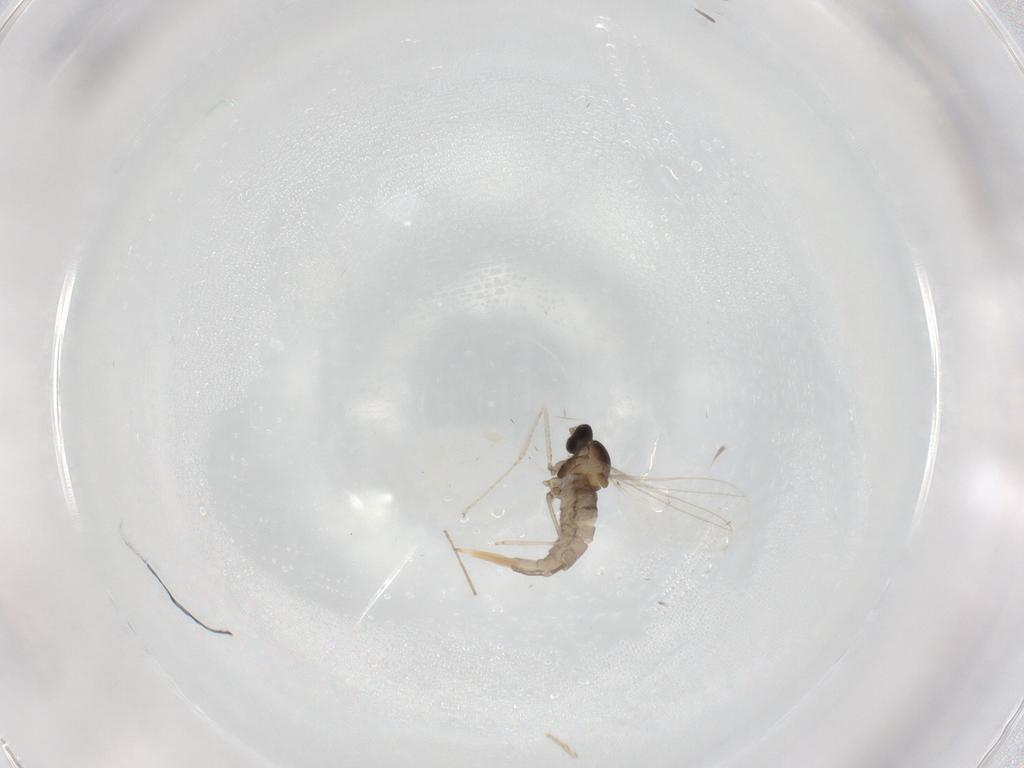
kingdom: Animalia
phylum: Arthropoda
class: Insecta
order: Diptera
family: Cecidomyiidae
